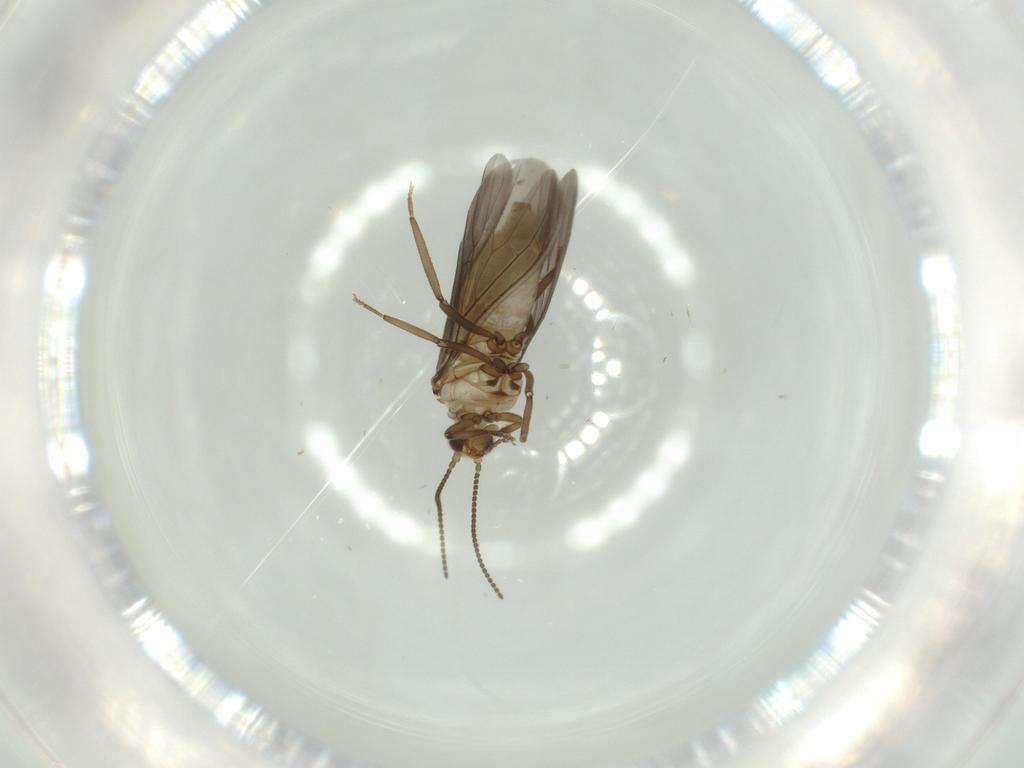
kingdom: Animalia
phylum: Arthropoda
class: Insecta
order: Neuroptera
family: Coniopterygidae
